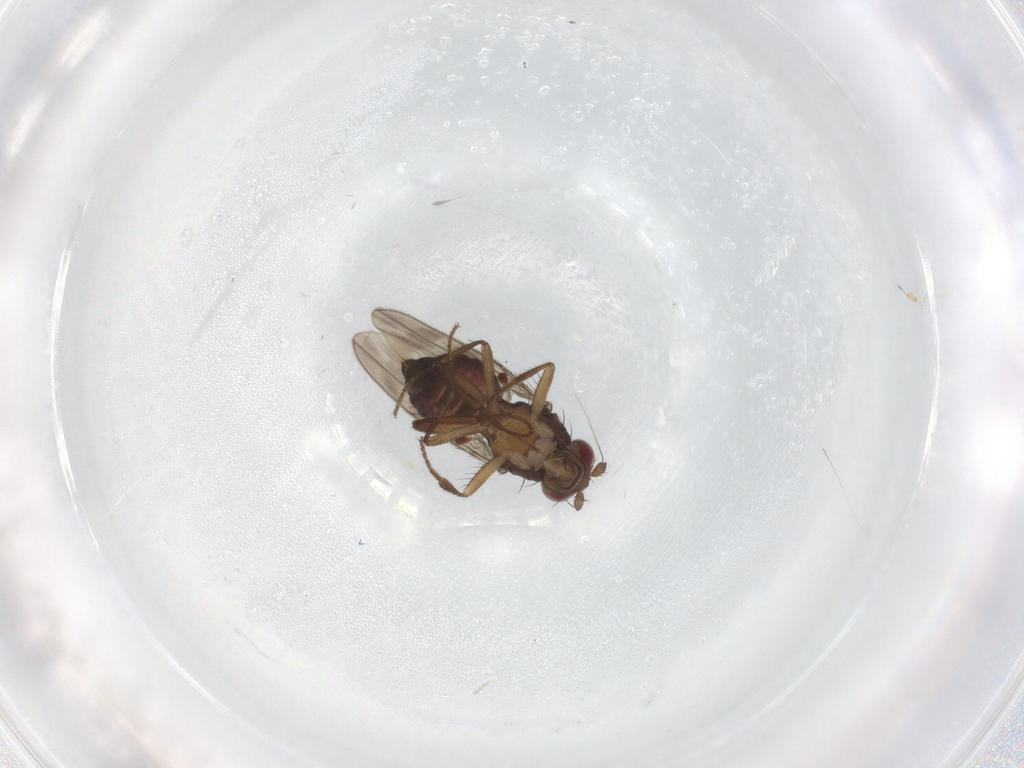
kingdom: Animalia
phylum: Arthropoda
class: Insecta
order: Diptera
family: Sphaeroceridae
